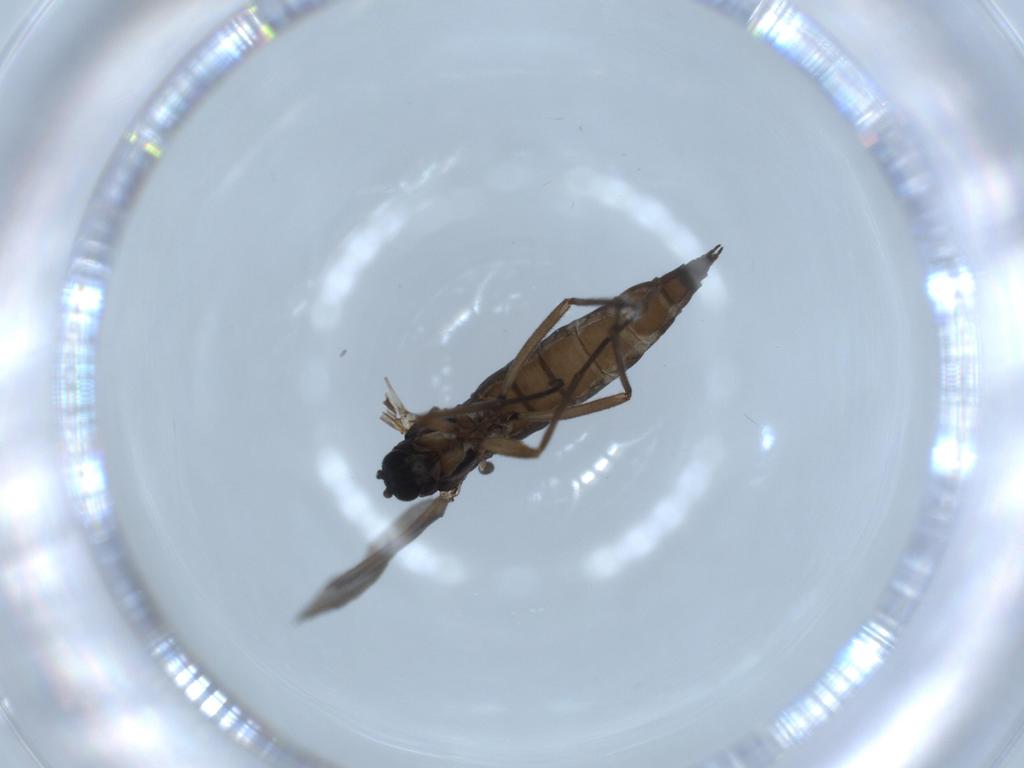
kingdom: Animalia
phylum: Arthropoda
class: Insecta
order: Diptera
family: Sciaridae
